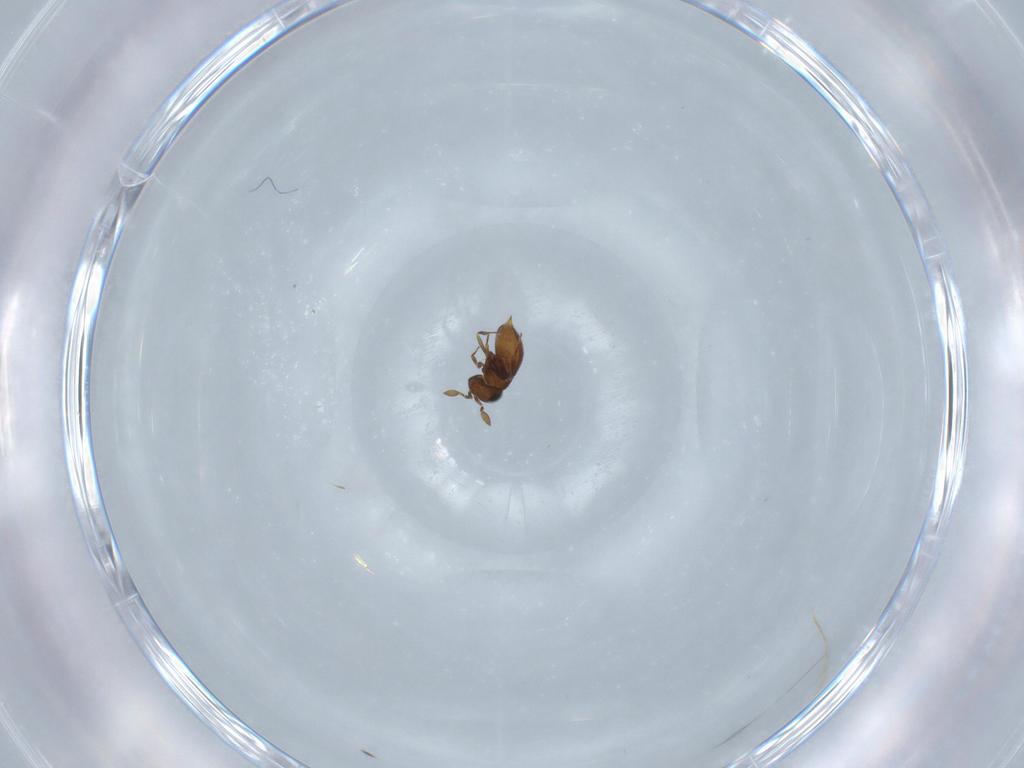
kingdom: Animalia
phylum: Arthropoda
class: Insecta
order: Hymenoptera
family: Scelionidae
